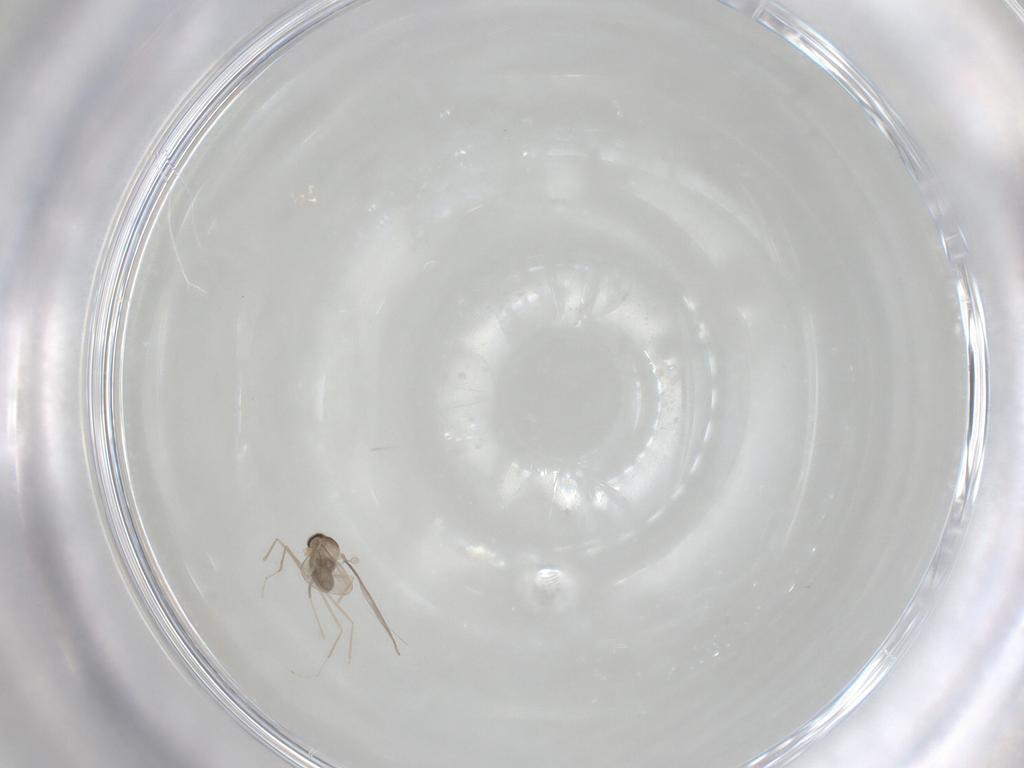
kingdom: Animalia
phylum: Arthropoda
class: Insecta
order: Diptera
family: Cecidomyiidae
